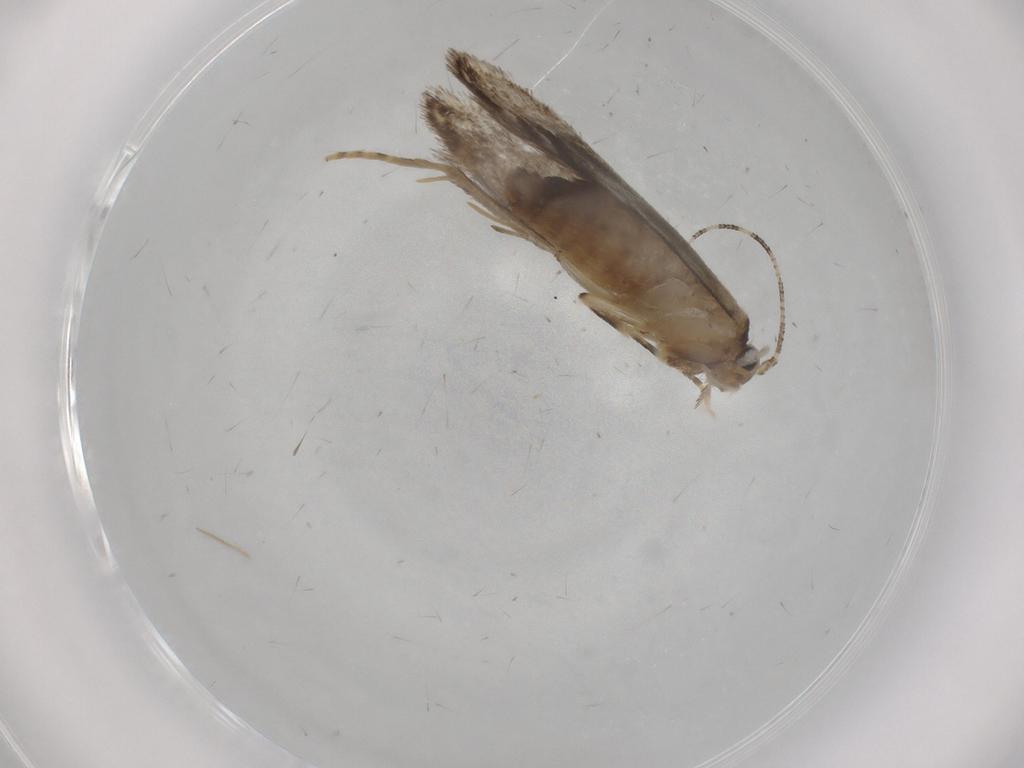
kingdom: Animalia
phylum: Arthropoda
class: Insecta
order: Lepidoptera
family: Tineidae
